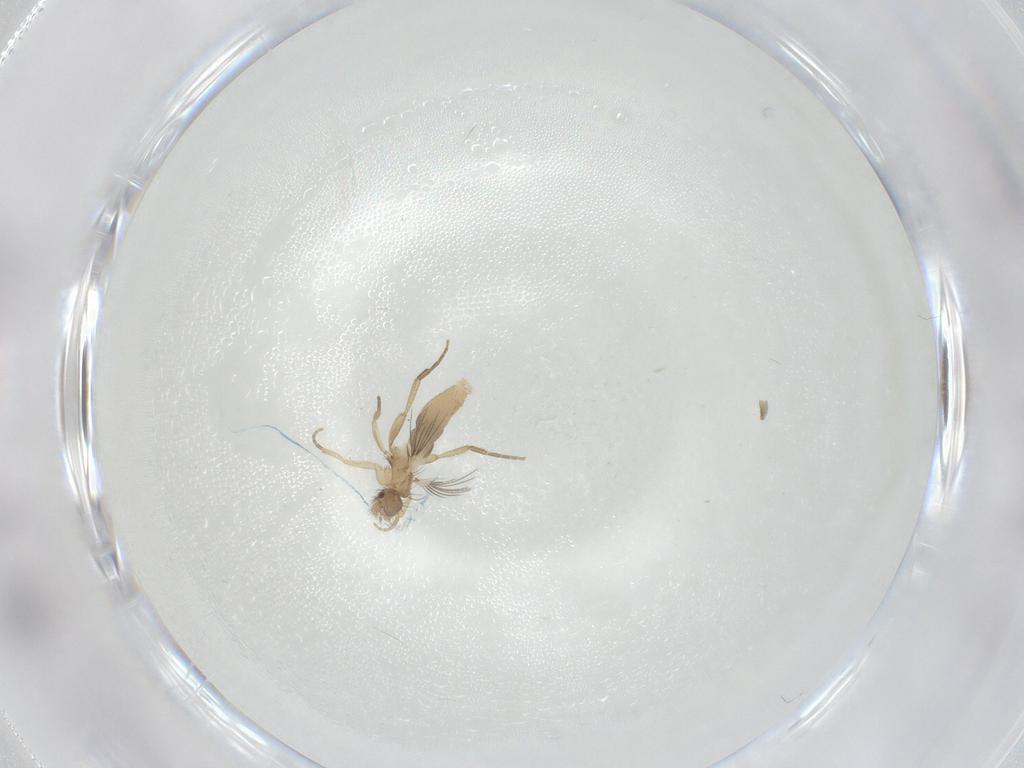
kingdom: Animalia
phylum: Arthropoda
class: Insecta
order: Diptera
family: Phoridae
